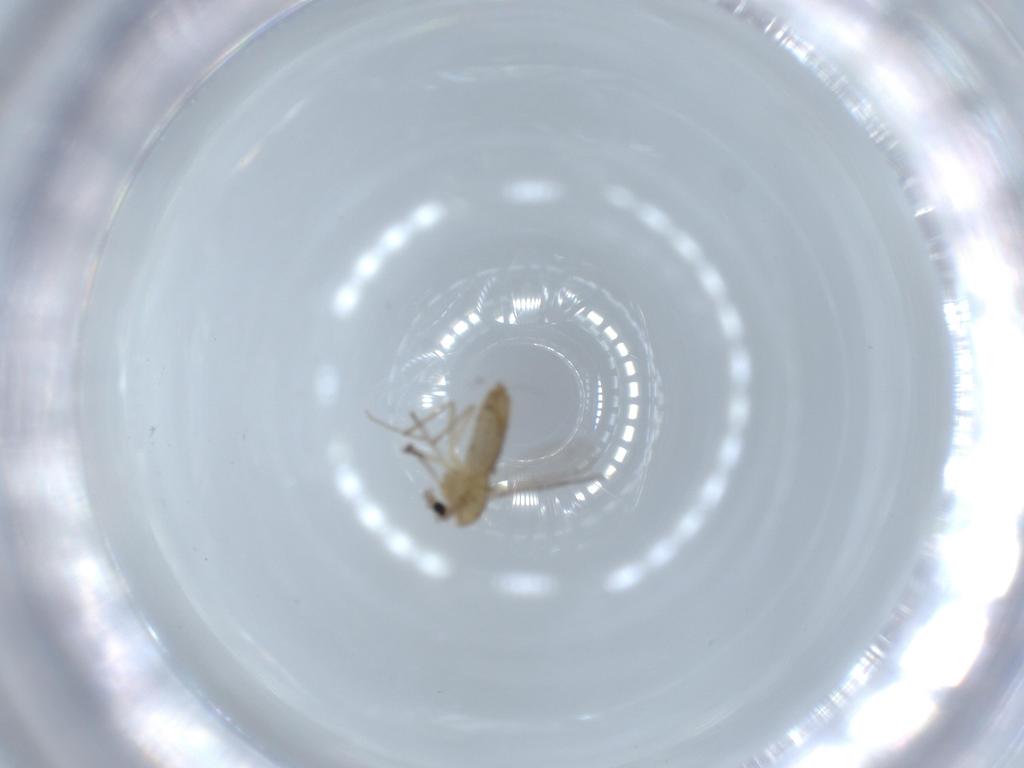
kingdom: Animalia
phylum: Arthropoda
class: Insecta
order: Diptera
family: Chironomidae
